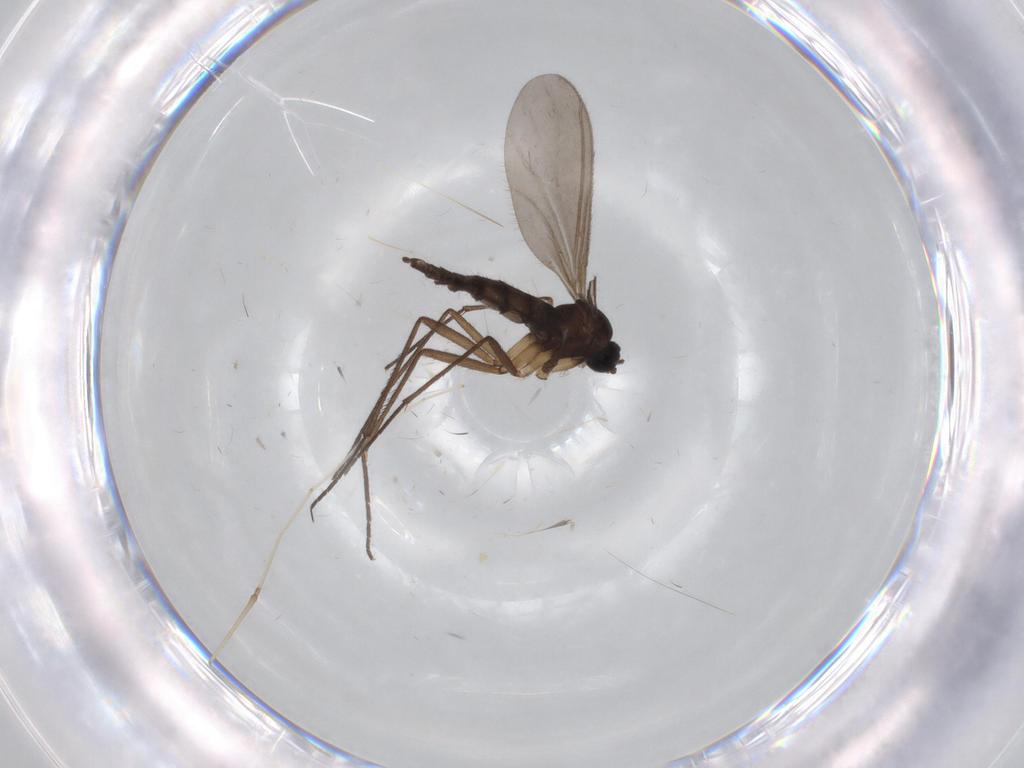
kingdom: Animalia
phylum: Arthropoda
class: Insecta
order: Diptera
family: Sciaridae
